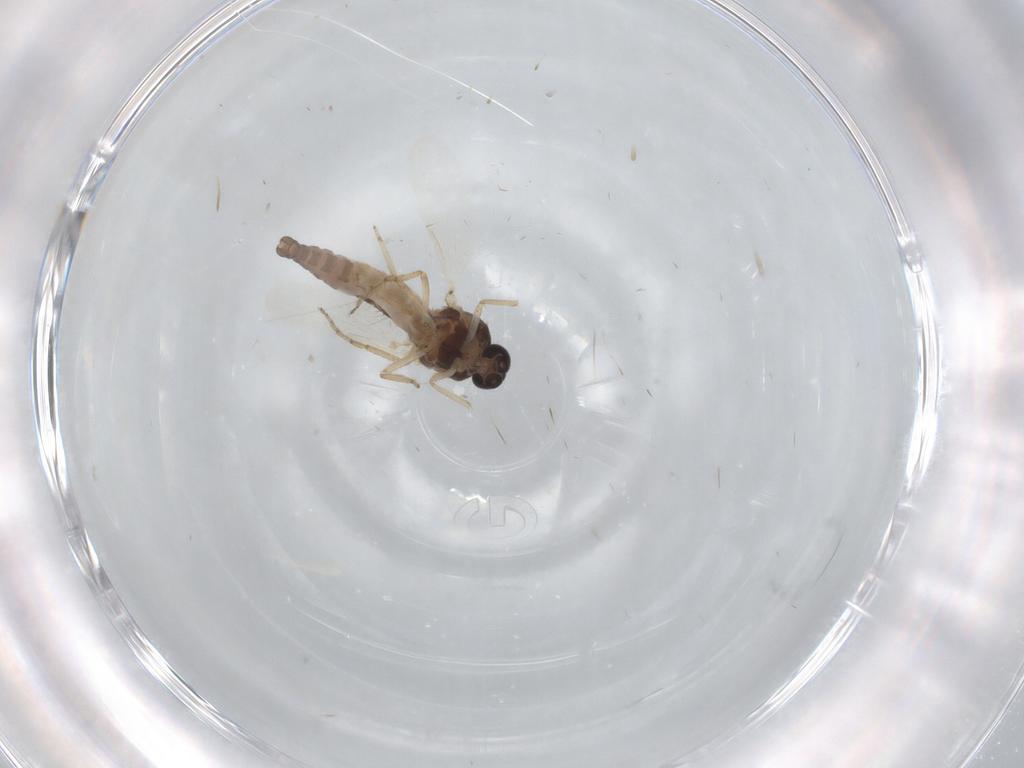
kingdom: Animalia
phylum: Arthropoda
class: Insecta
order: Diptera
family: Ceratopogonidae
